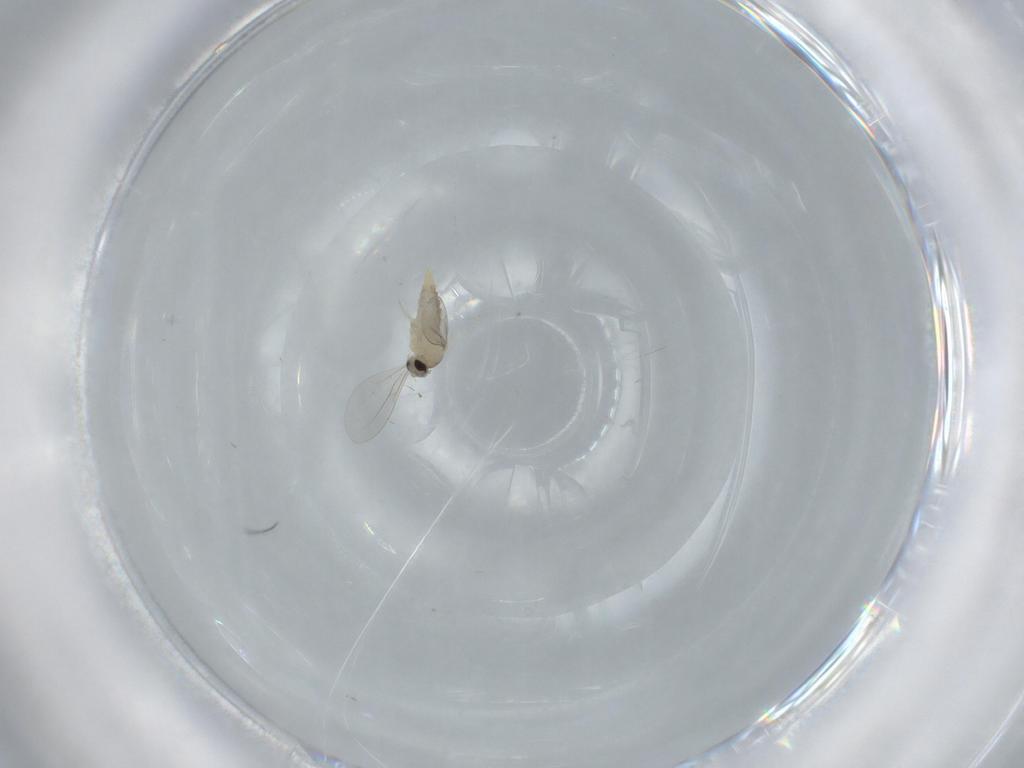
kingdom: Animalia
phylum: Arthropoda
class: Insecta
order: Diptera
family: Cecidomyiidae
